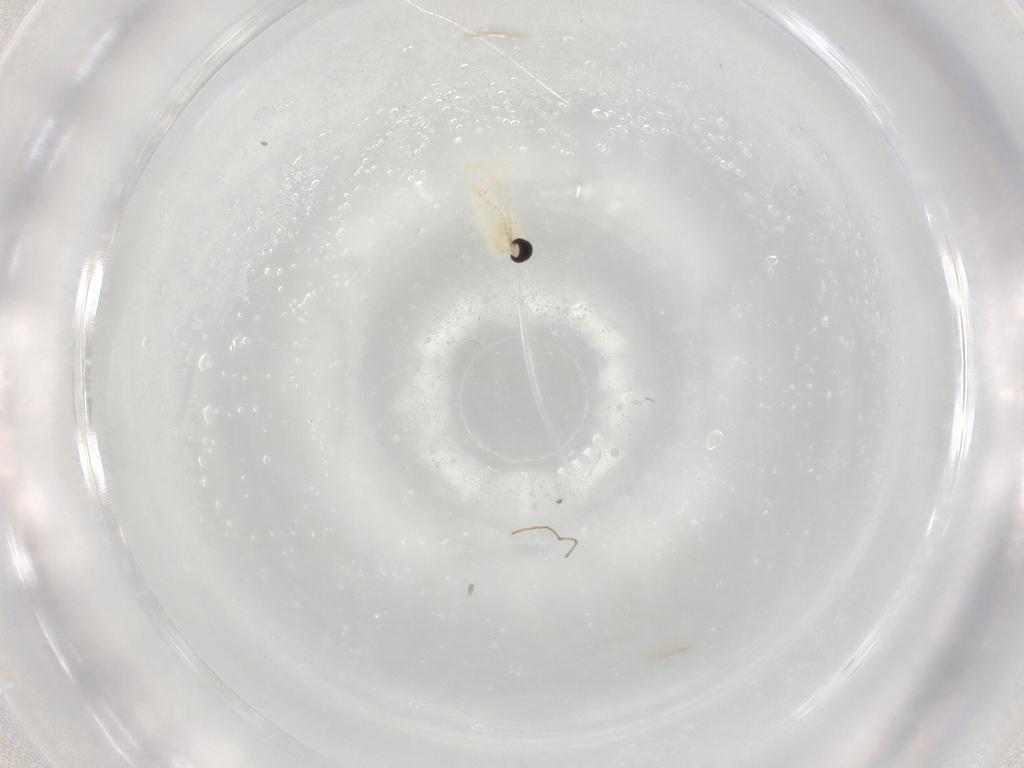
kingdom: Animalia
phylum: Arthropoda
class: Insecta
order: Diptera
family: Cecidomyiidae
